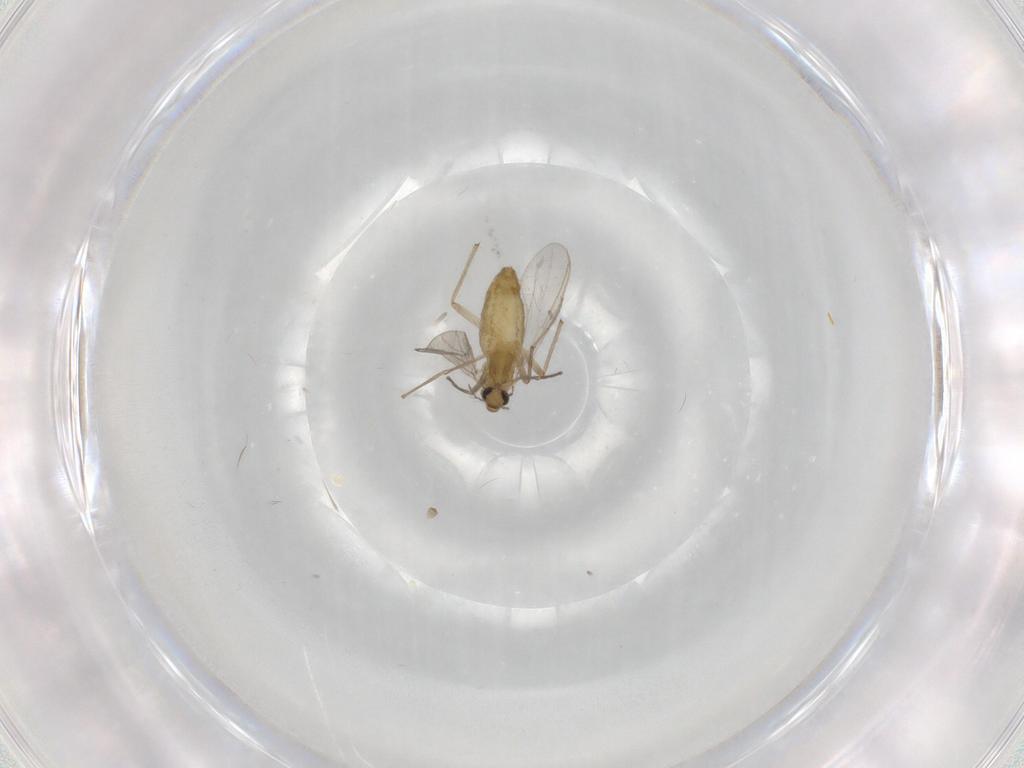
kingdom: Animalia
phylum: Arthropoda
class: Insecta
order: Diptera
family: Chironomidae
